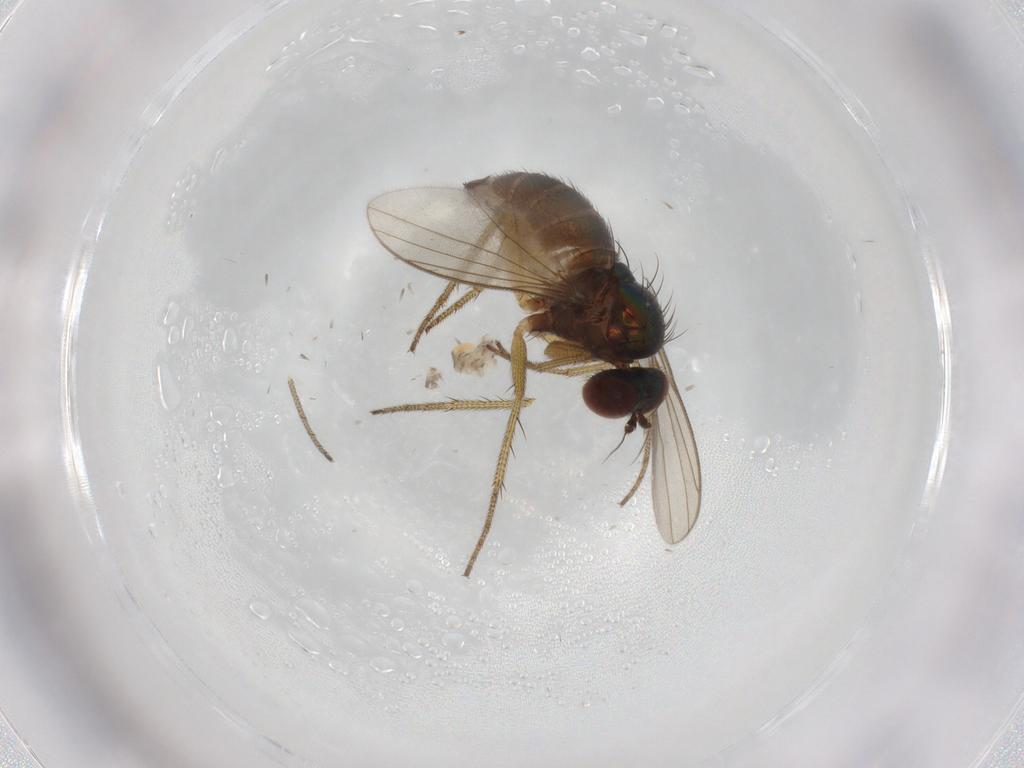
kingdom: Animalia
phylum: Arthropoda
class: Insecta
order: Diptera
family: Dolichopodidae
